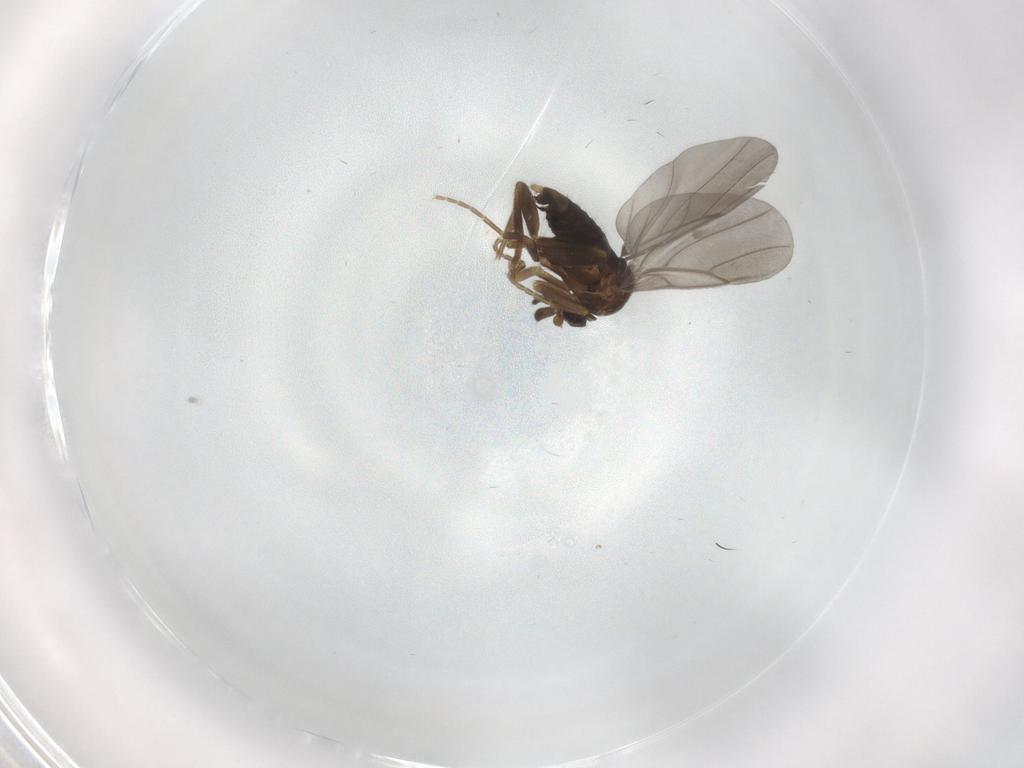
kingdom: Animalia
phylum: Arthropoda
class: Insecta
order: Diptera
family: Phoridae
